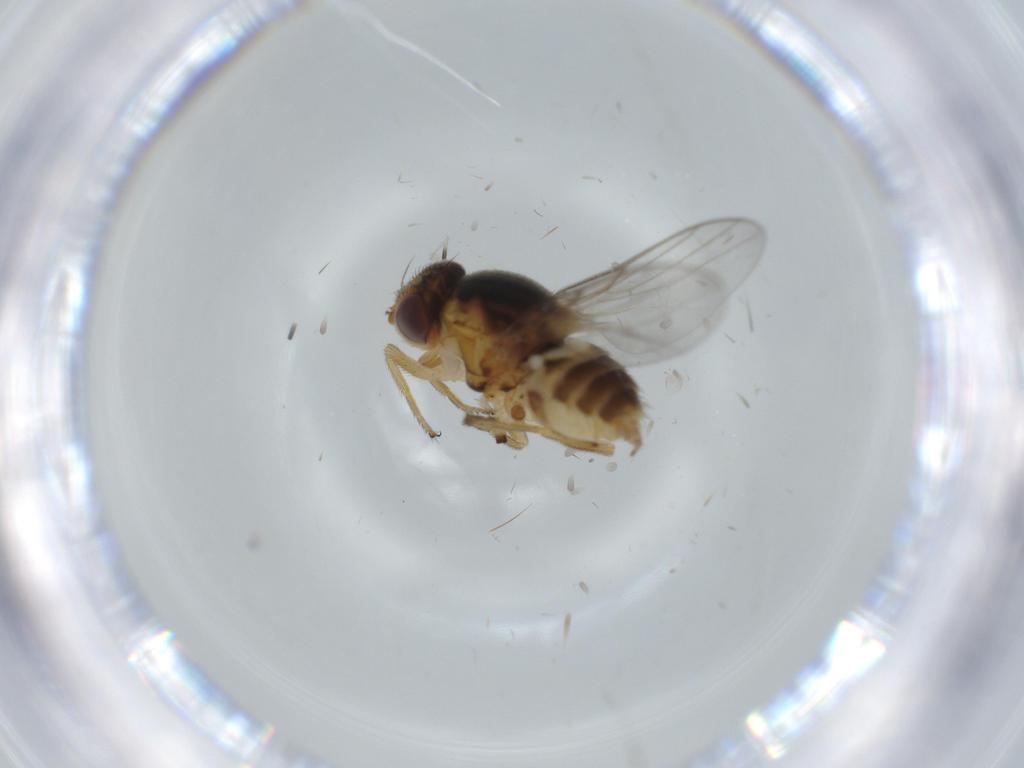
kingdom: Animalia
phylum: Arthropoda
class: Insecta
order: Diptera
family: Chloropidae
